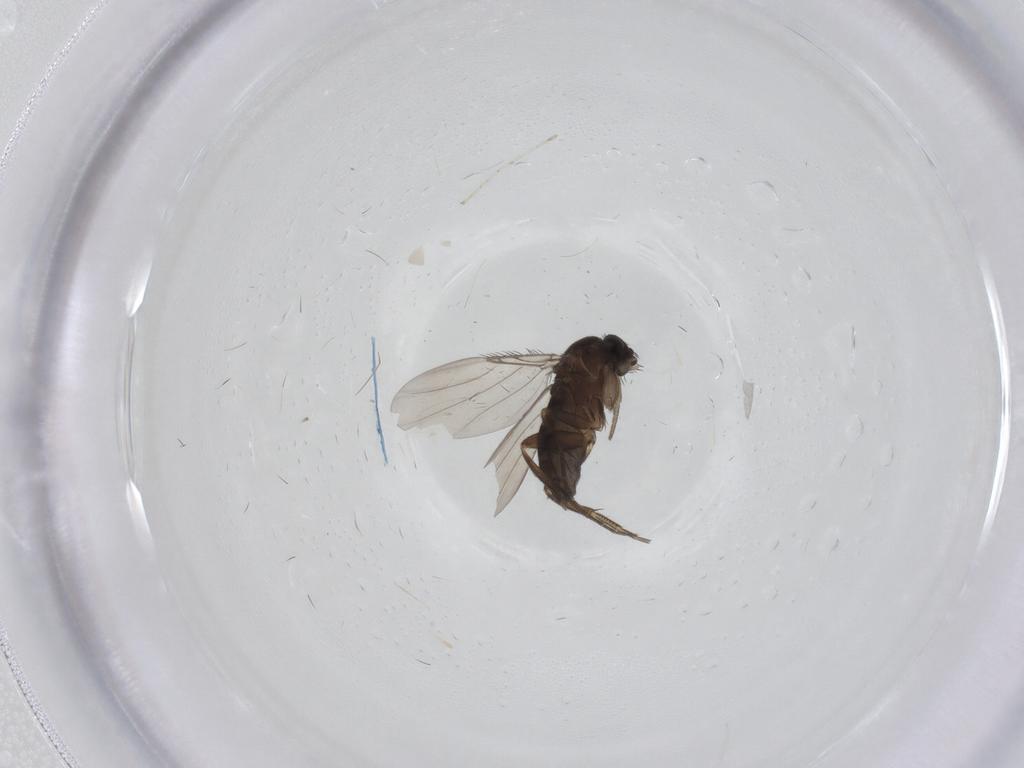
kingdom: Animalia
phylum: Arthropoda
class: Insecta
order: Diptera
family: Phoridae
